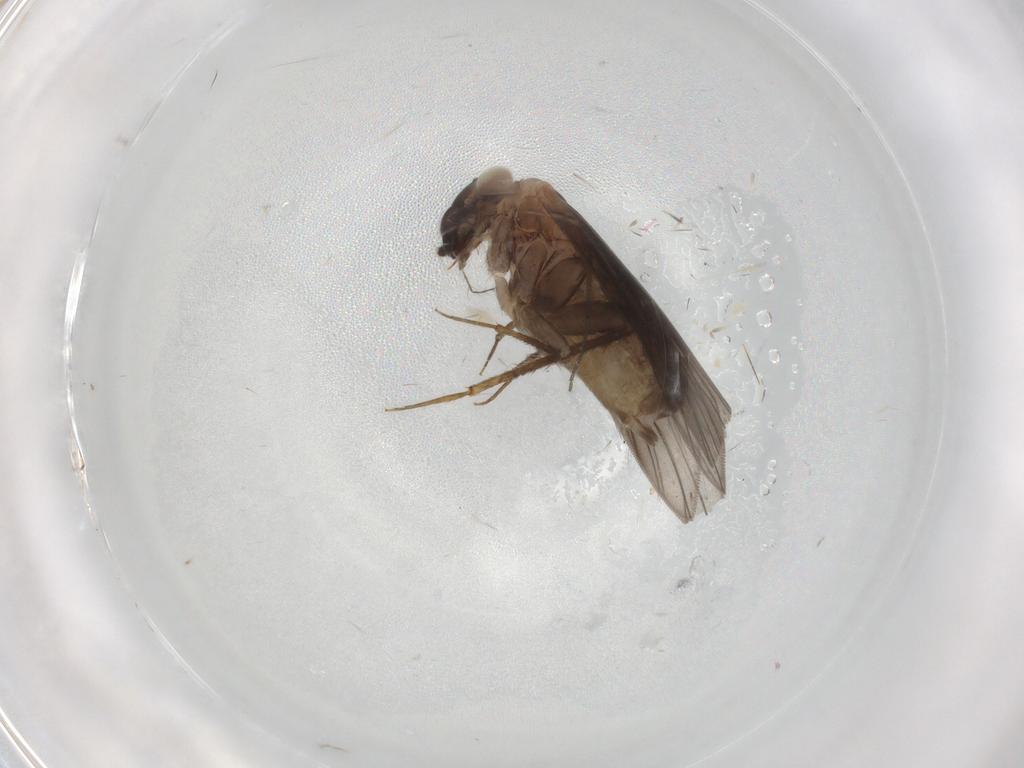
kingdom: Animalia
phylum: Arthropoda
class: Insecta
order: Psocodea
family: Lepidopsocidae
